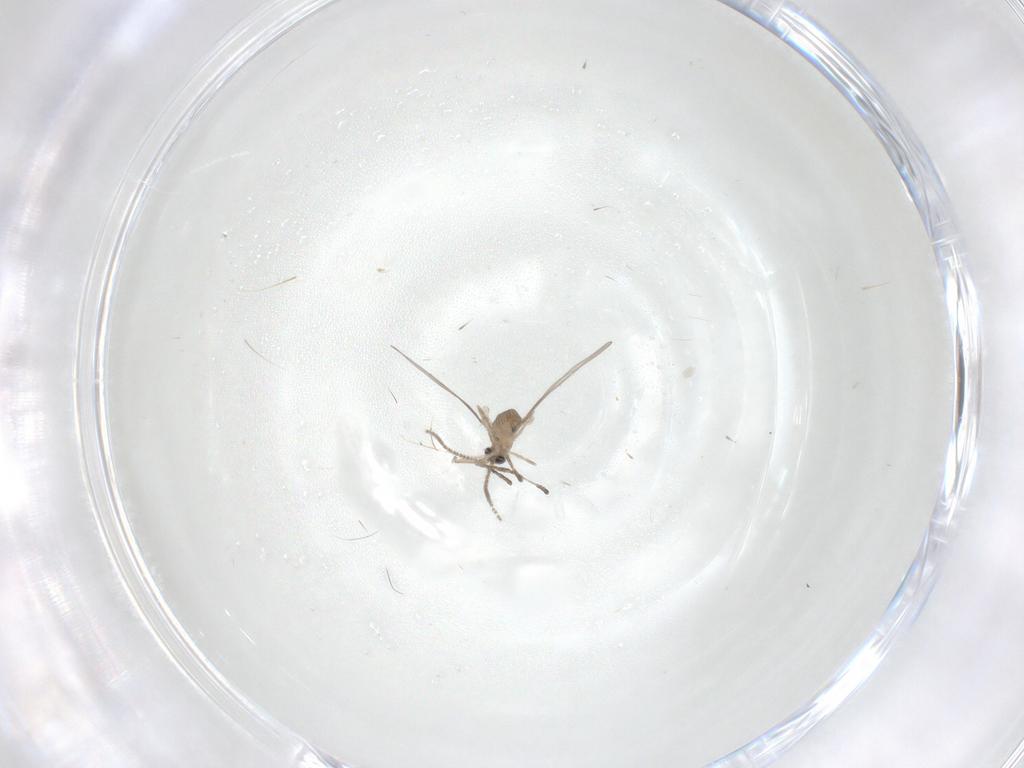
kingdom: Animalia
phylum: Arthropoda
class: Insecta
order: Diptera
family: Cecidomyiidae
